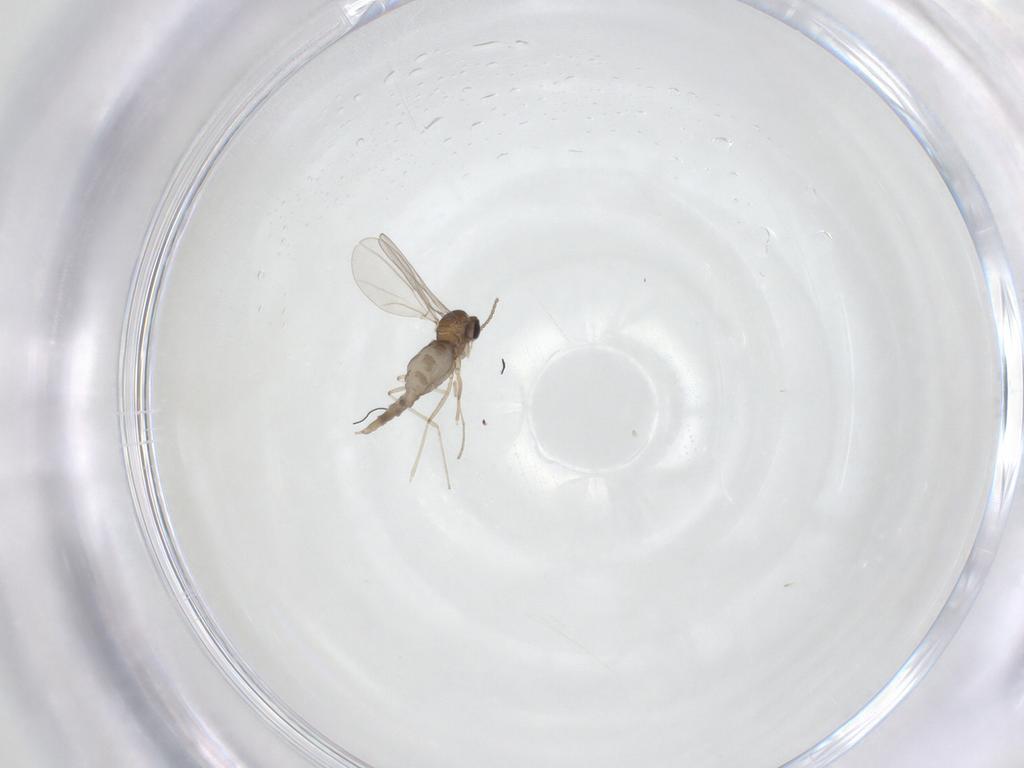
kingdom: Animalia
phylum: Arthropoda
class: Insecta
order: Diptera
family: Cecidomyiidae
